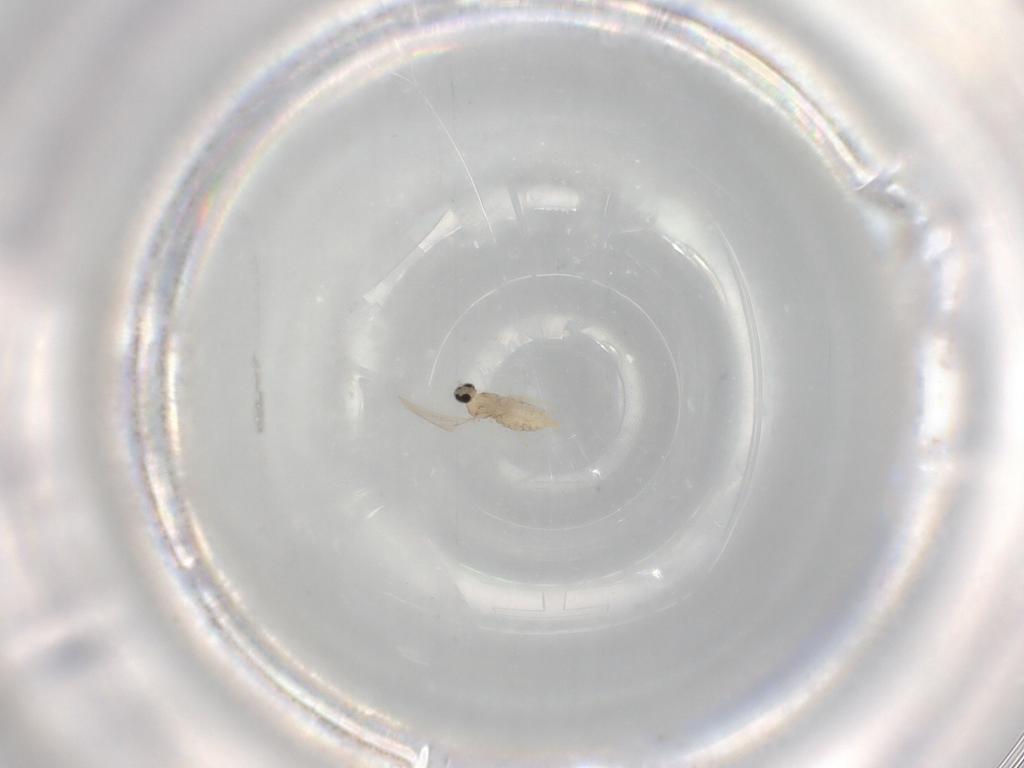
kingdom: Animalia
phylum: Arthropoda
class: Insecta
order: Diptera
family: Cecidomyiidae
